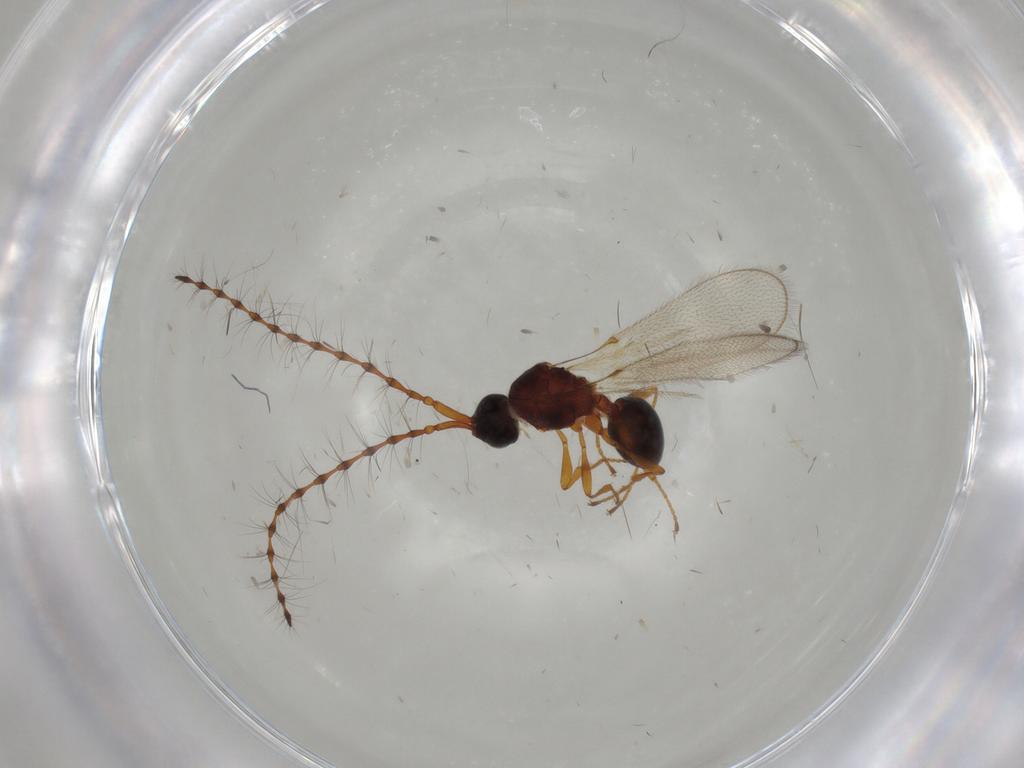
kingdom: Animalia
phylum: Arthropoda
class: Insecta
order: Hymenoptera
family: Diapriidae
